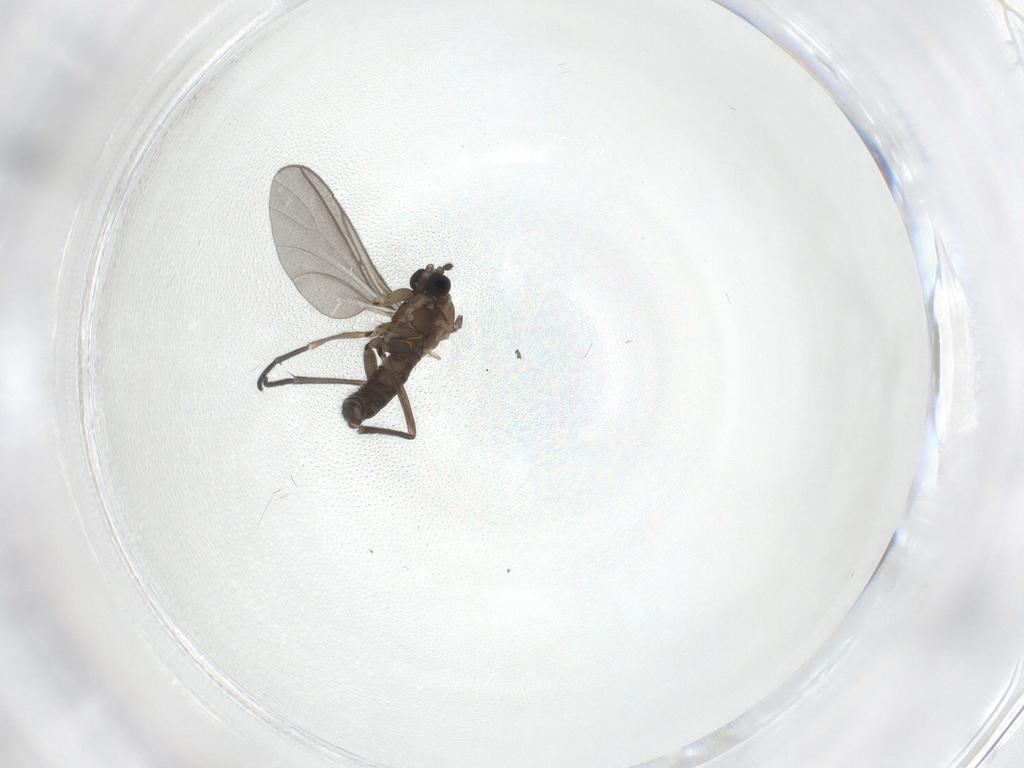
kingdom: Animalia
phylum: Arthropoda
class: Insecta
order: Diptera
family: Sciaridae
